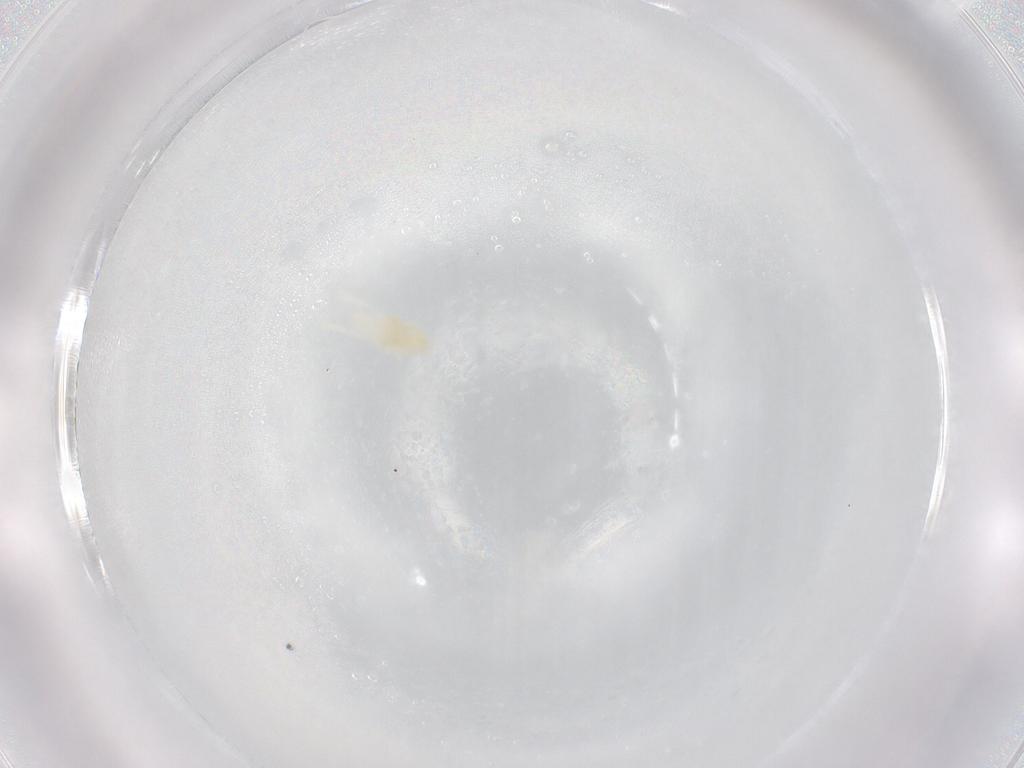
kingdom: Animalia
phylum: Arthropoda
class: Arachnida
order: Trombidiformes
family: Rhagidiidae
